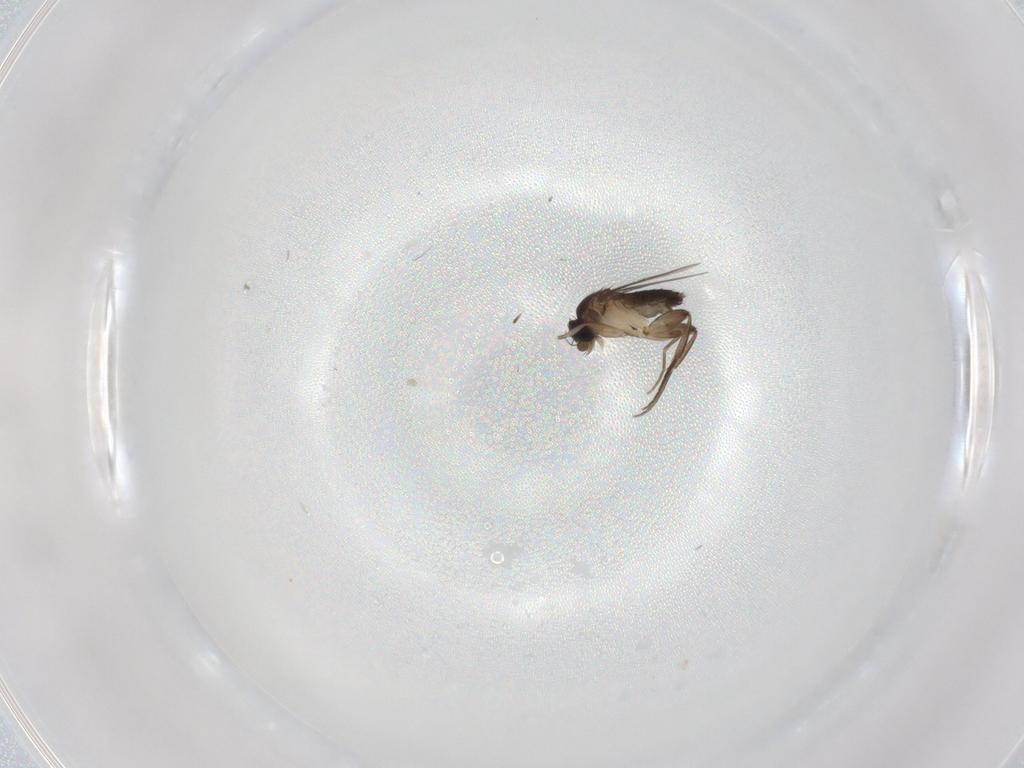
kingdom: Animalia
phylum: Arthropoda
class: Insecta
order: Diptera
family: Phoridae
